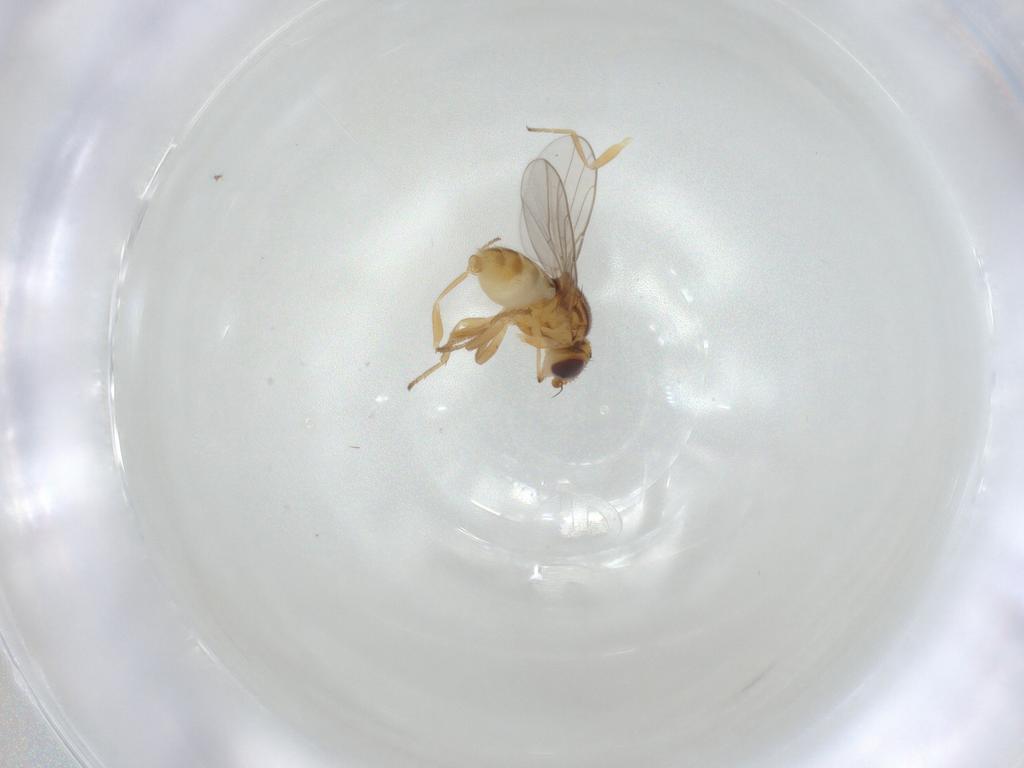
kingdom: Animalia
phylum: Arthropoda
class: Insecta
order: Diptera
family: Chloropidae
